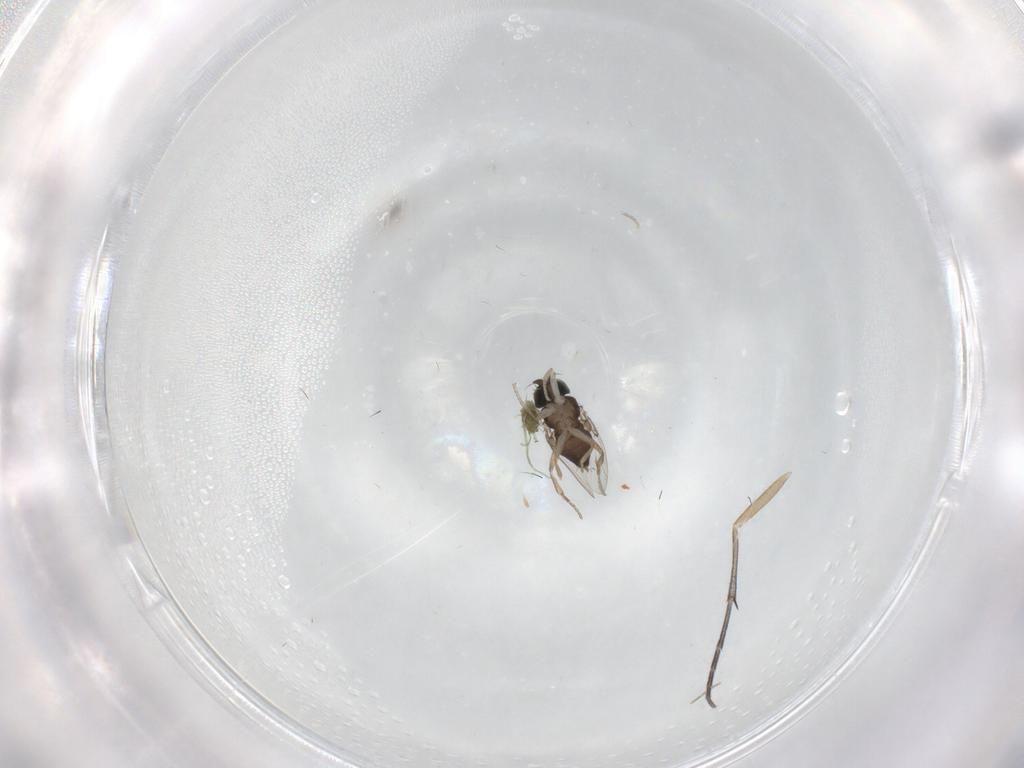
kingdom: Animalia
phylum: Arthropoda
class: Insecta
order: Diptera
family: Phoridae
